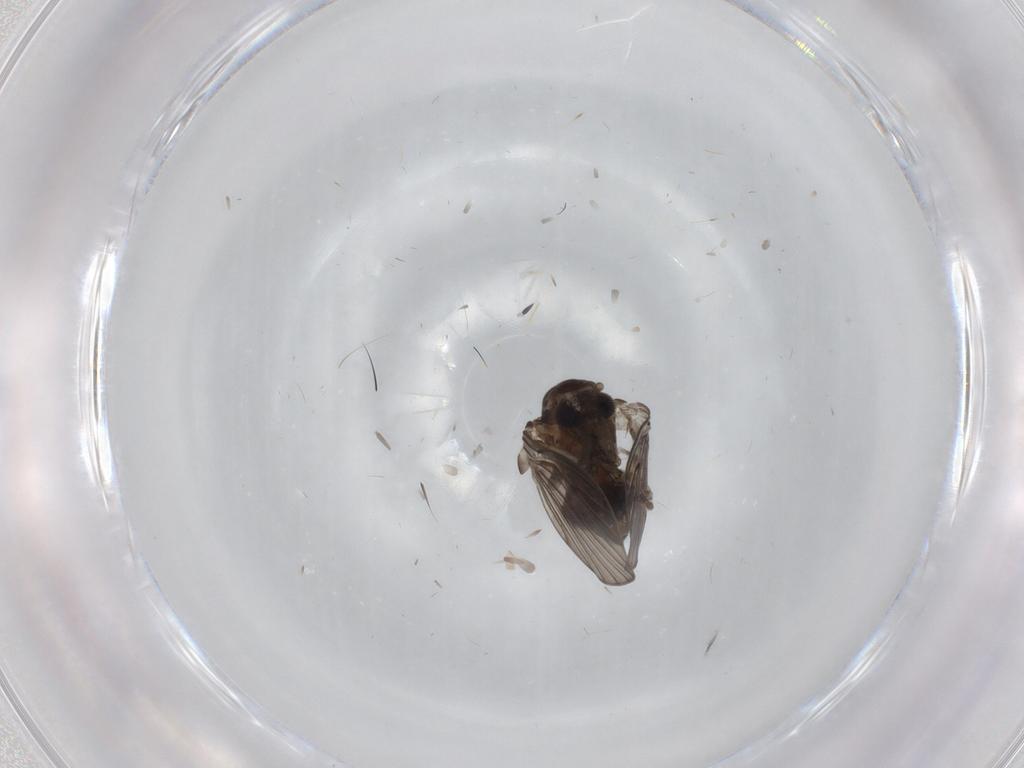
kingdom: Animalia
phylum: Arthropoda
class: Insecta
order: Diptera
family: Psychodidae
